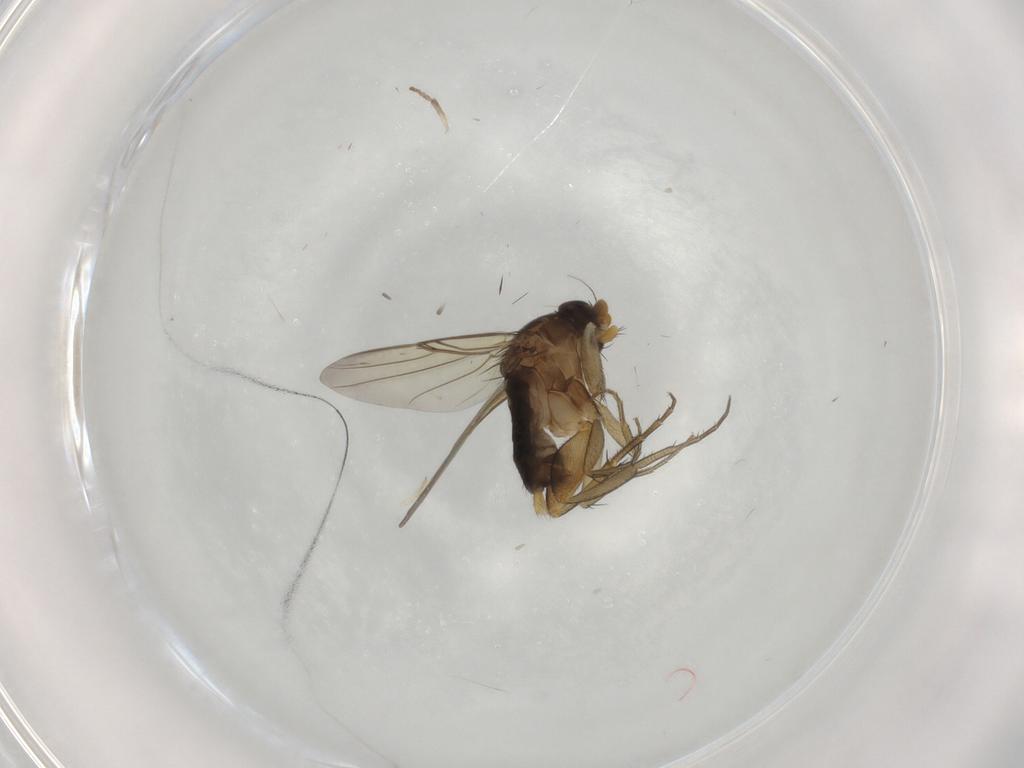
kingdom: Animalia
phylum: Arthropoda
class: Insecta
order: Diptera
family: Phoridae
